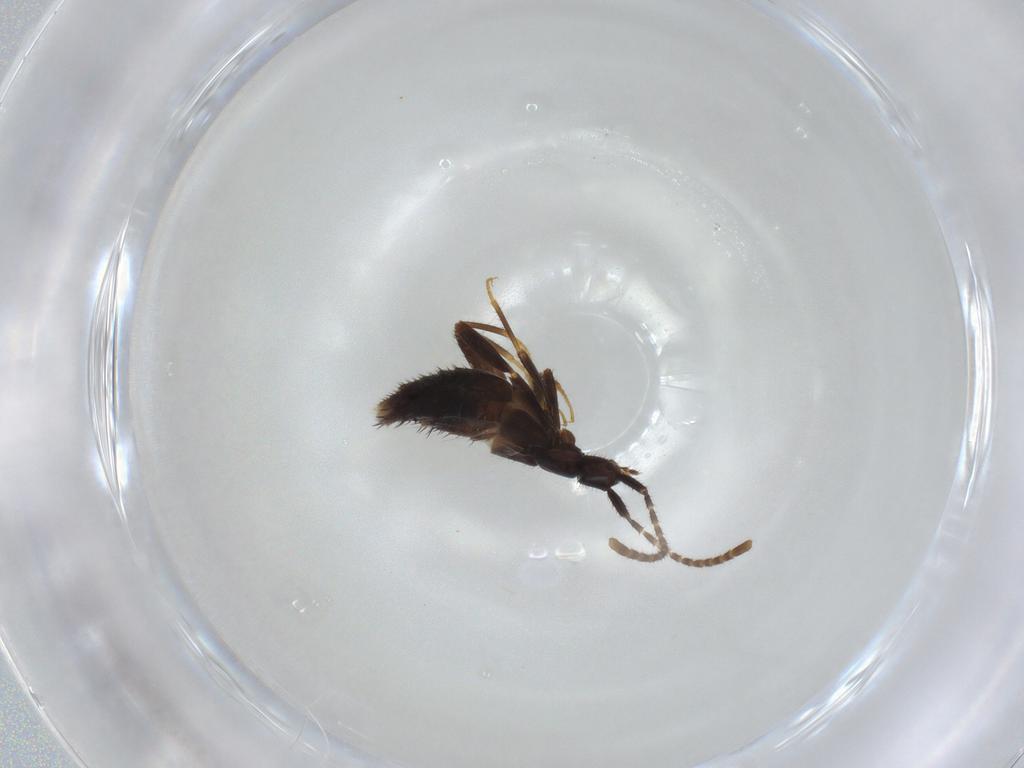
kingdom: Animalia
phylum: Arthropoda
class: Insecta
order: Coleoptera
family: Staphylinidae
